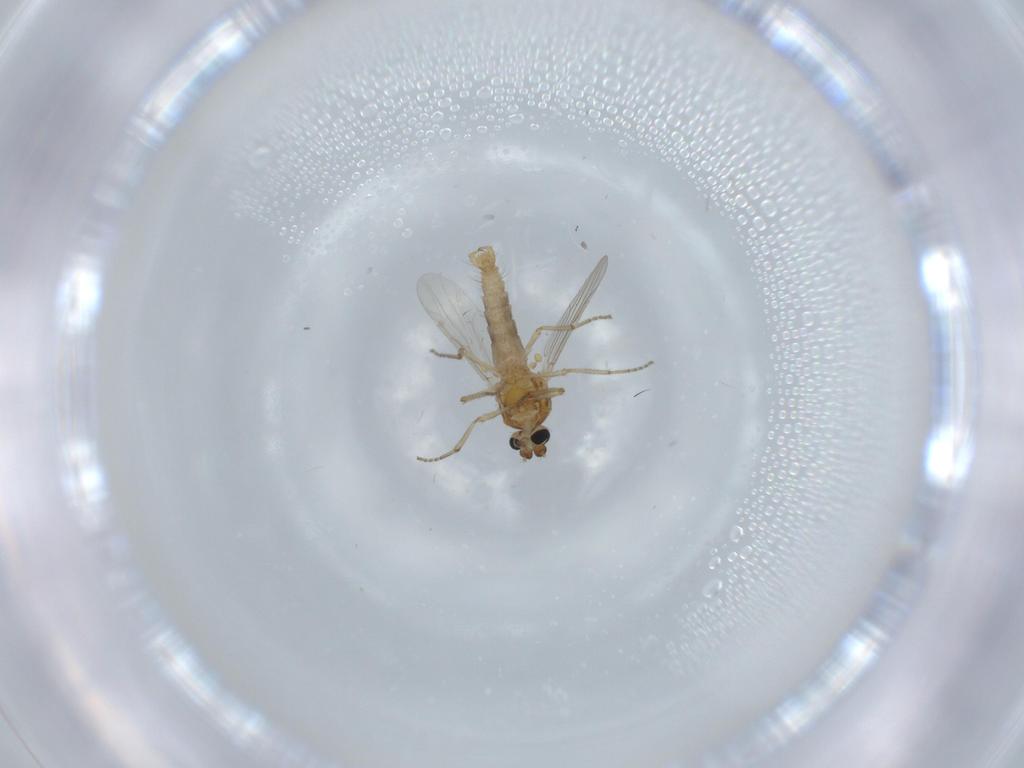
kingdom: Animalia
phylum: Arthropoda
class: Insecta
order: Diptera
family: Ceratopogonidae
